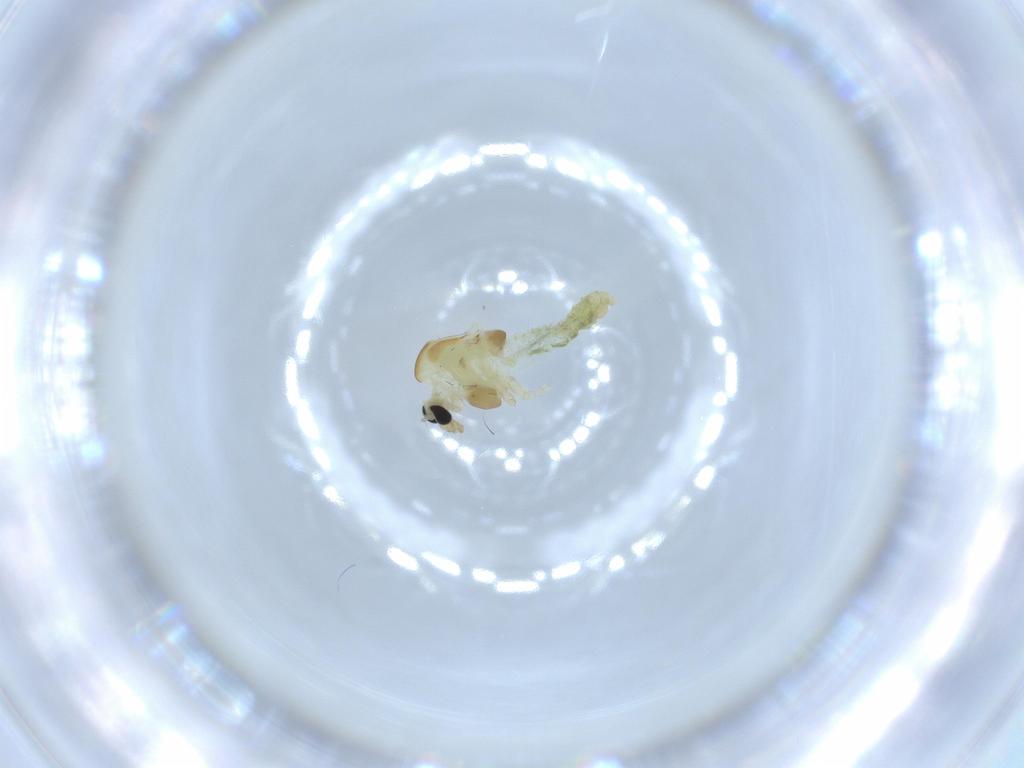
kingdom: Animalia
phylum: Arthropoda
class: Insecta
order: Diptera
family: Chironomidae
